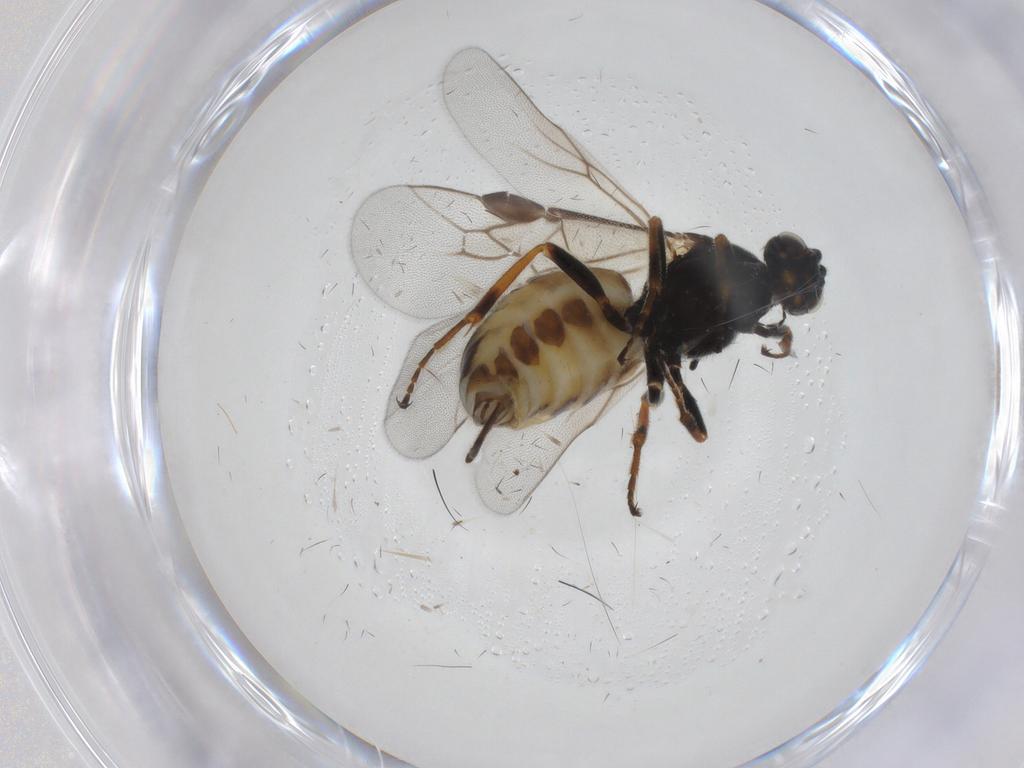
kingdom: Animalia
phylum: Arthropoda
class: Insecta
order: Hymenoptera
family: Braconidae
